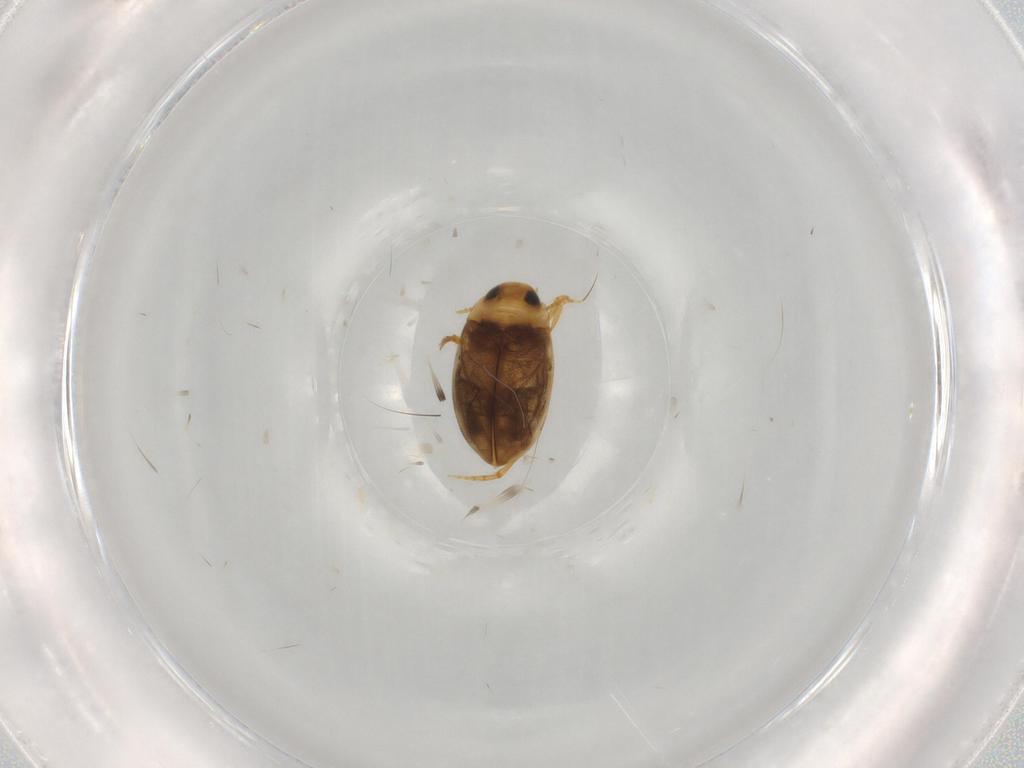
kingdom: Animalia
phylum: Arthropoda
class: Insecta
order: Coleoptera
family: Dytiscidae
